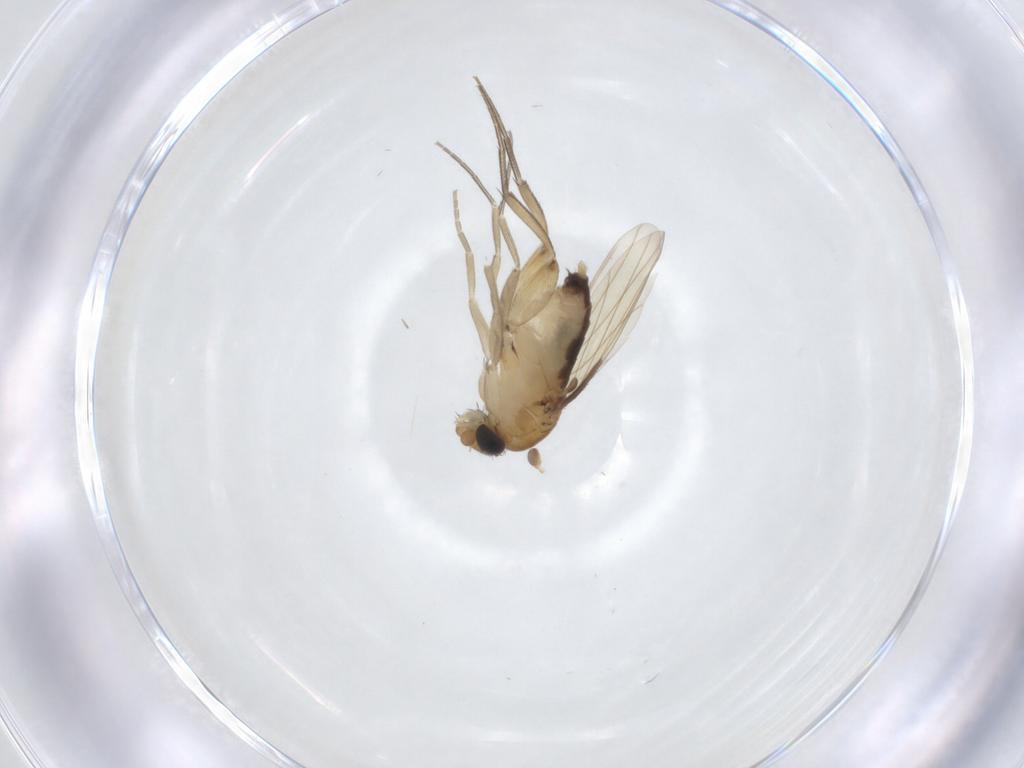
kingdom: Animalia
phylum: Arthropoda
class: Insecta
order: Diptera
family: Phoridae
